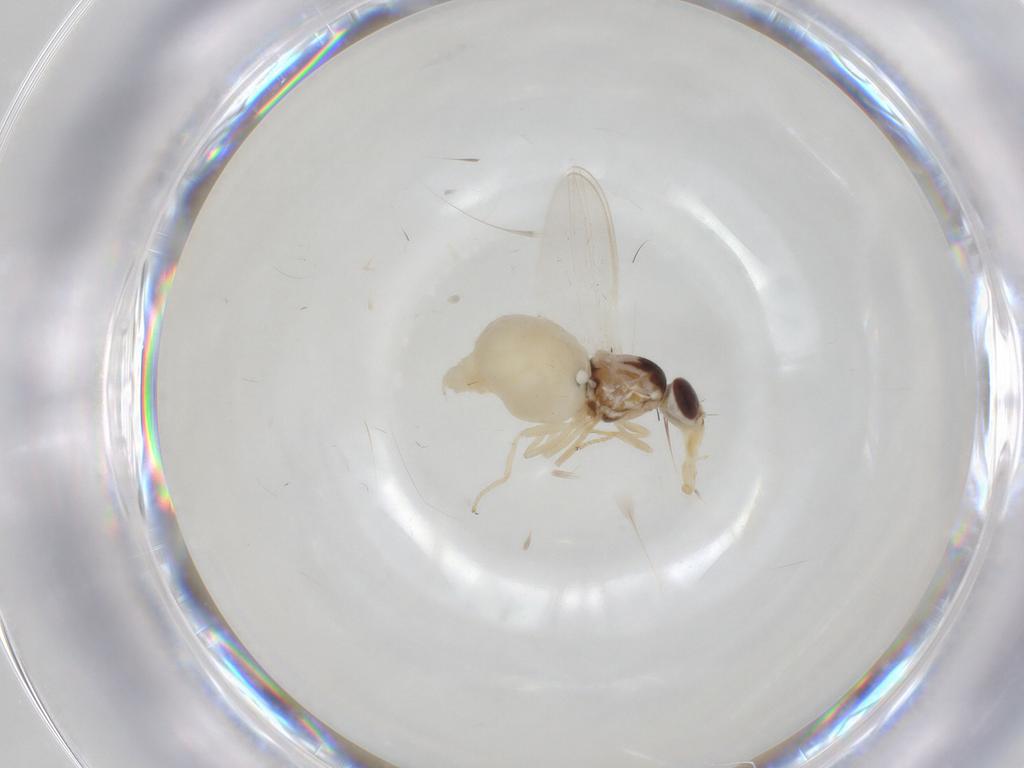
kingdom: Animalia
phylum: Arthropoda
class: Insecta
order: Diptera
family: Chloropidae
